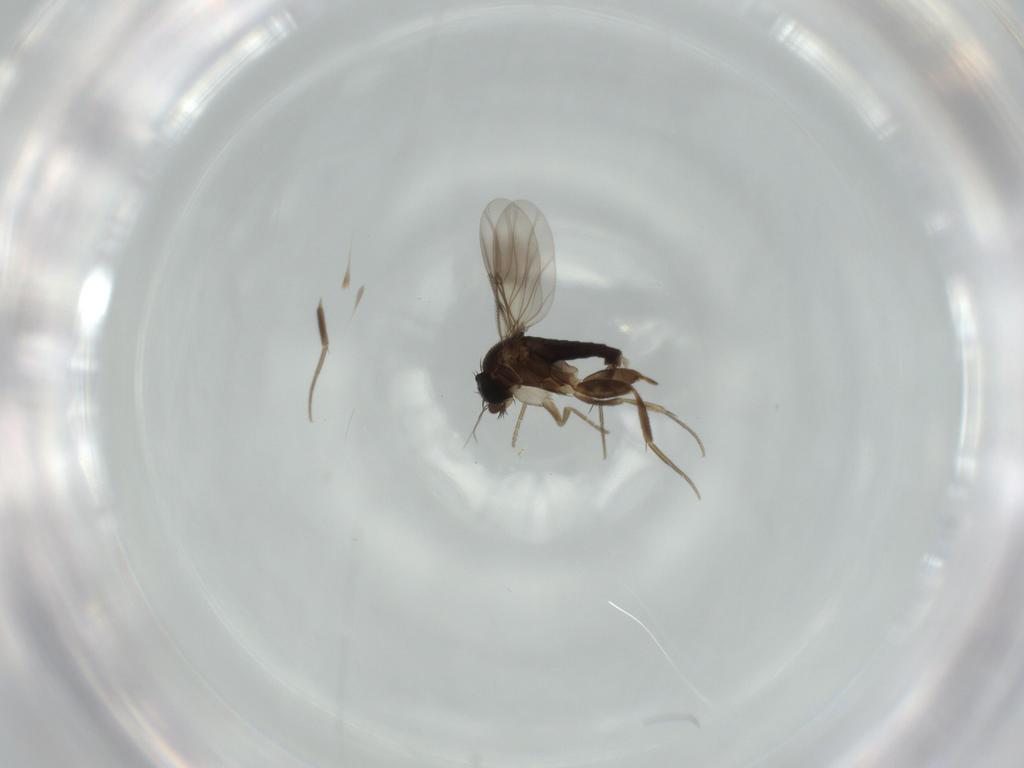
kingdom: Animalia
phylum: Arthropoda
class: Insecta
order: Diptera
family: Phoridae
